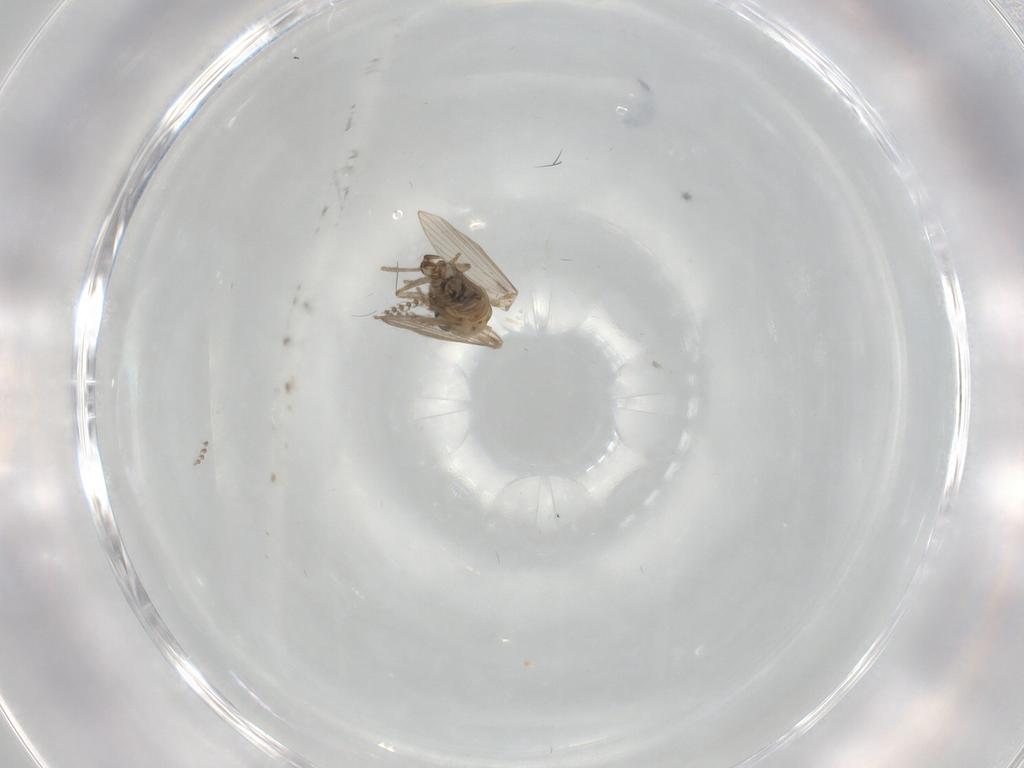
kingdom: Animalia
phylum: Arthropoda
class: Insecta
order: Diptera
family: Psychodidae
